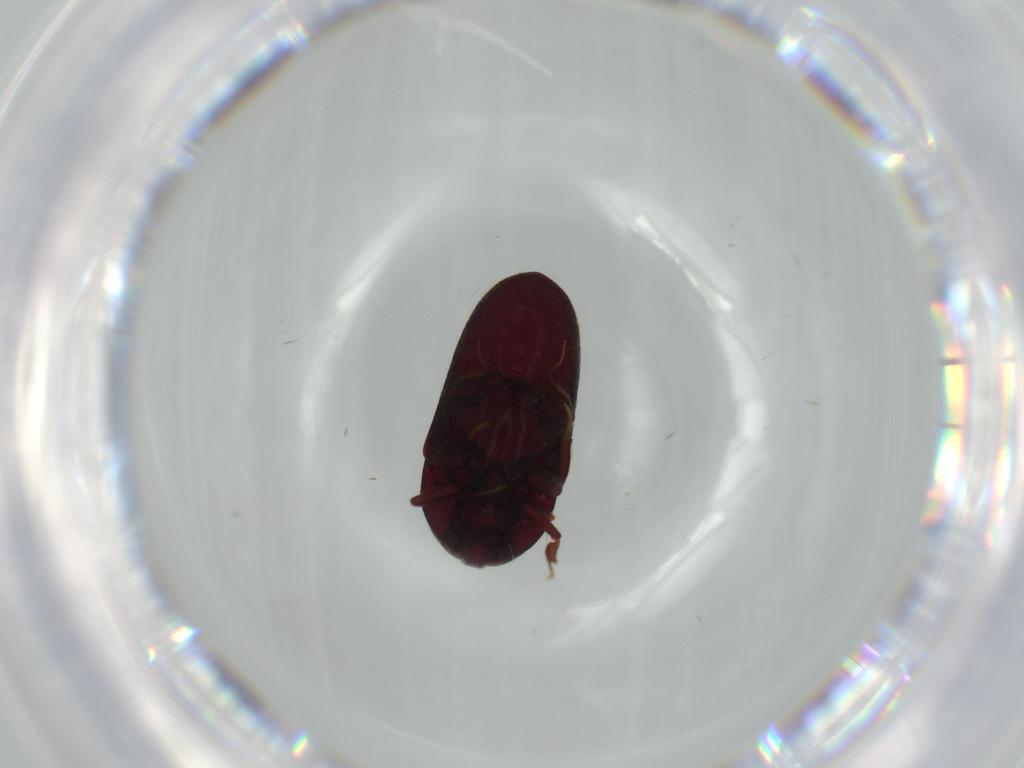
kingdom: Animalia
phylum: Arthropoda
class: Insecta
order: Coleoptera
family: Throscidae
